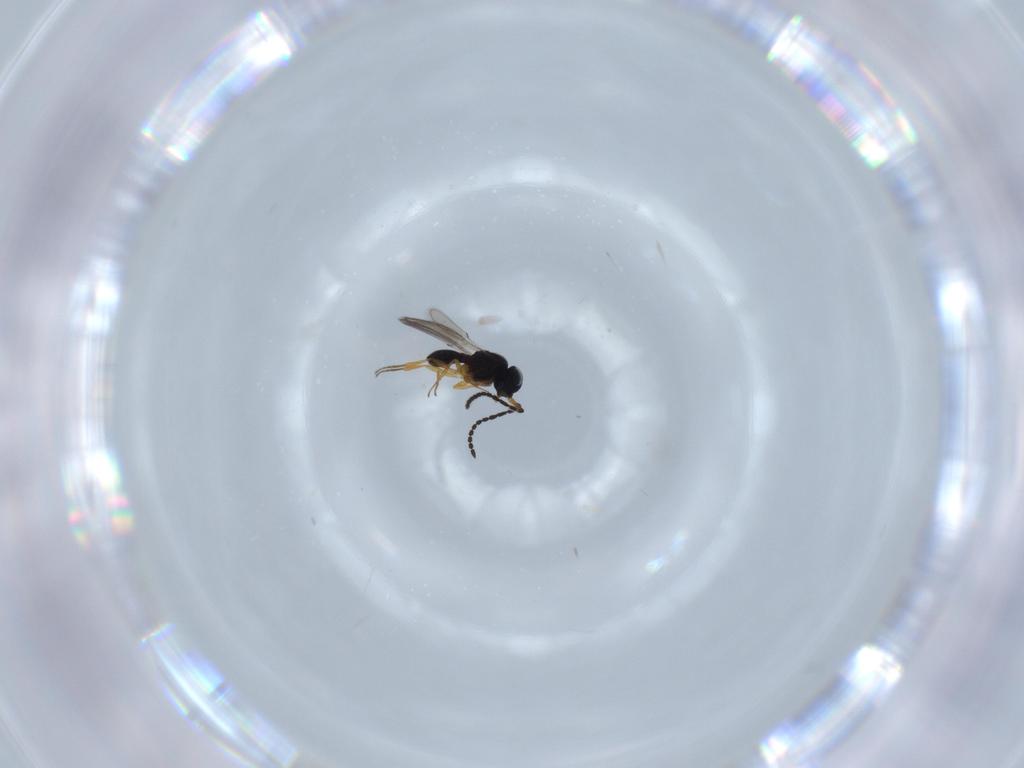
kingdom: Animalia
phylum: Arthropoda
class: Insecta
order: Hymenoptera
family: Scelionidae
